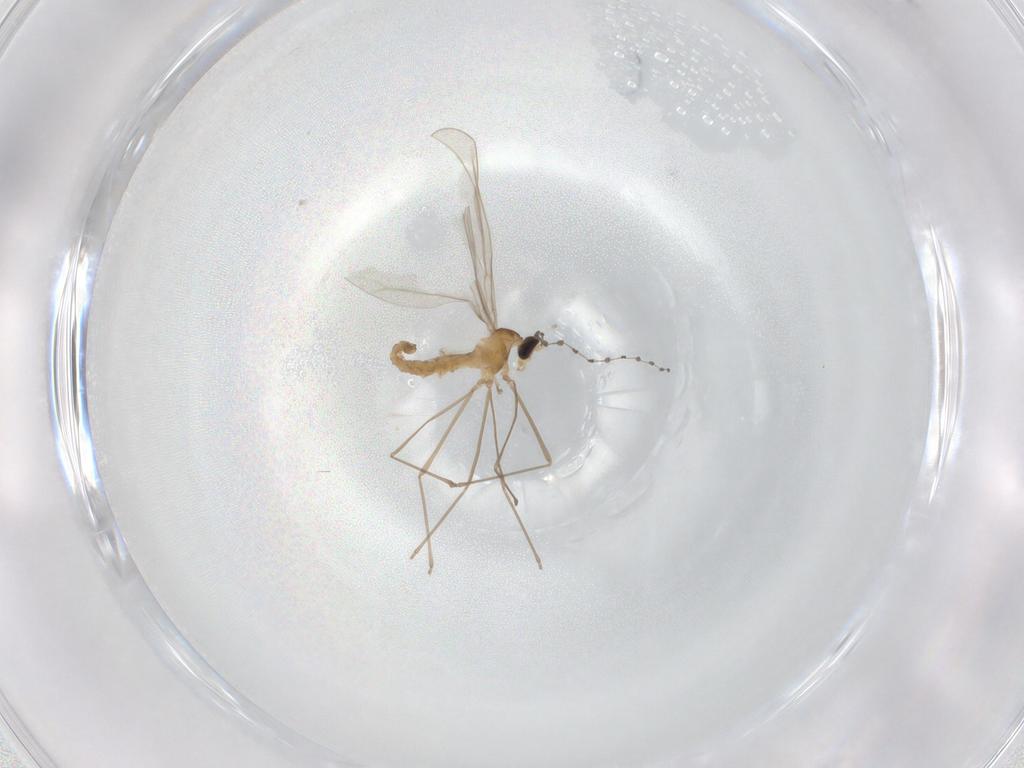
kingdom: Animalia
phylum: Arthropoda
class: Insecta
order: Diptera
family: Cecidomyiidae
